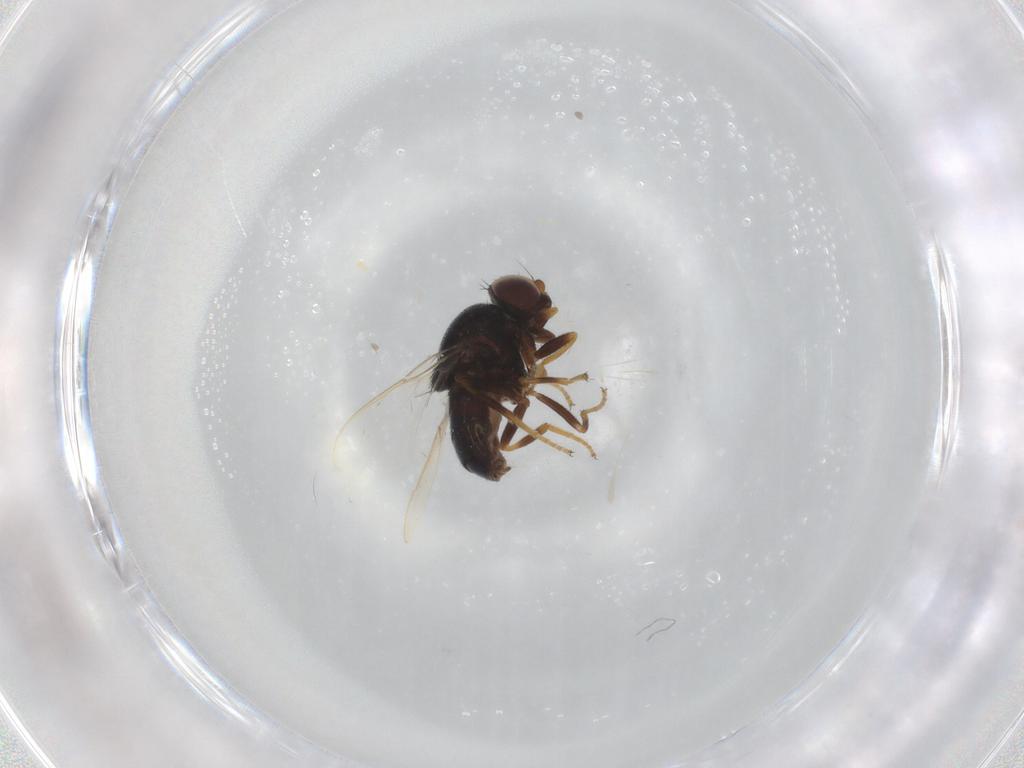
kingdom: Animalia
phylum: Arthropoda
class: Insecta
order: Diptera
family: Chloropidae
